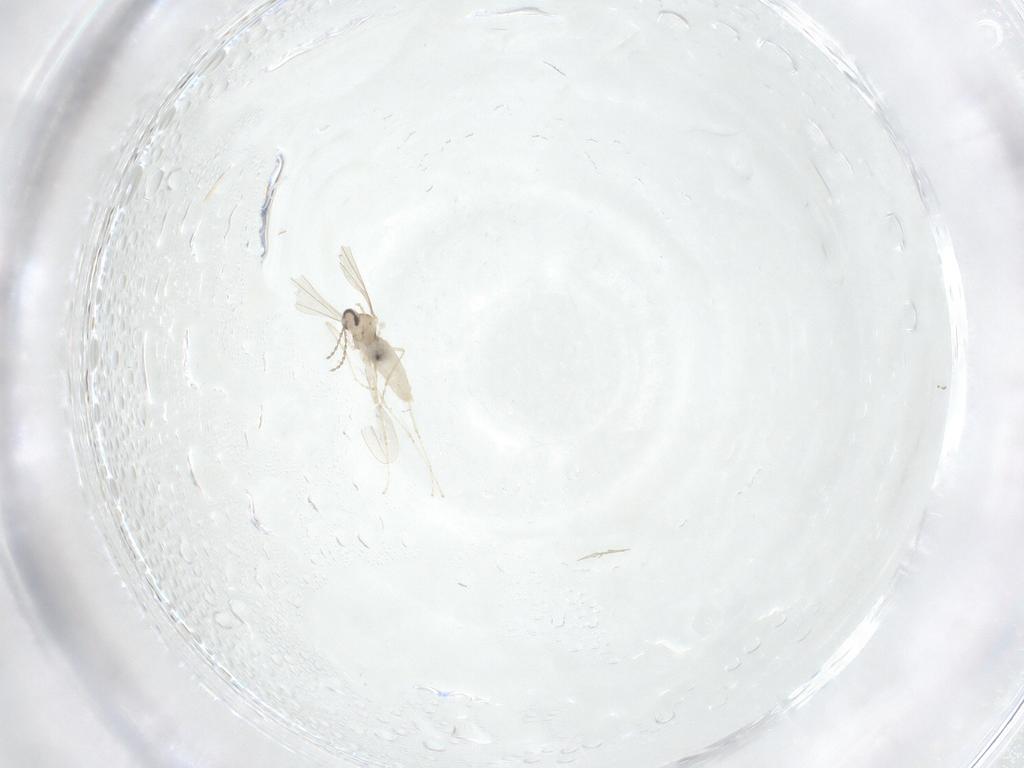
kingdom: Animalia
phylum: Arthropoda
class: Insecta
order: Diptera
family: Cecidomyiidae
